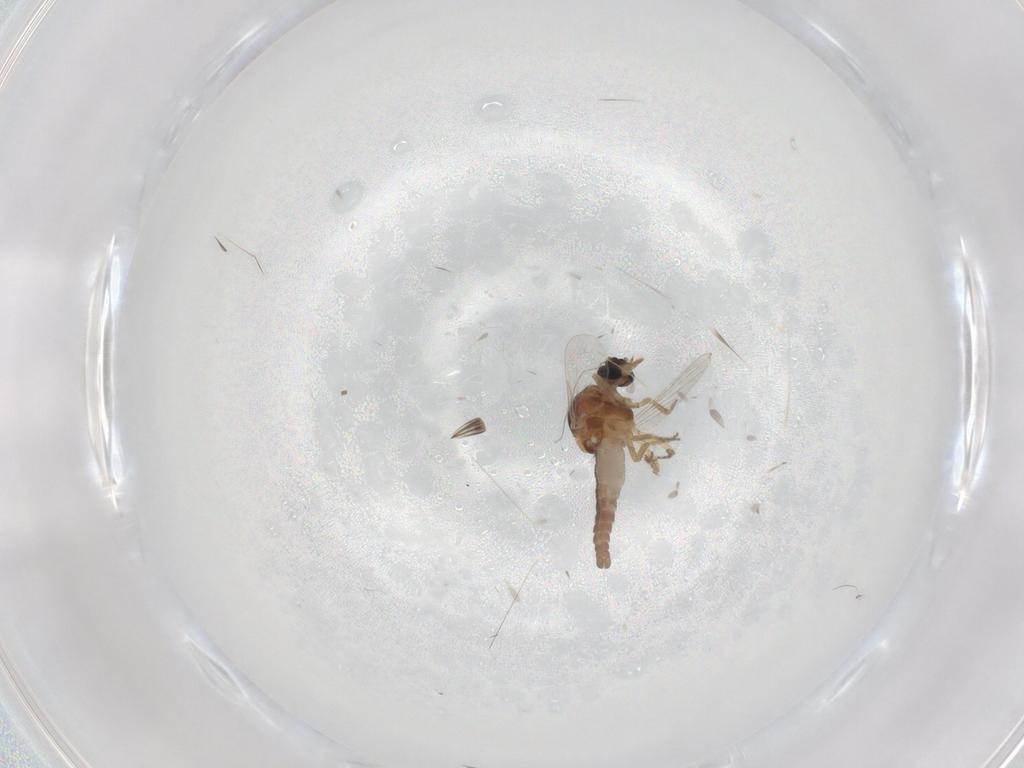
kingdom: Animalia
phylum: Arthropoda
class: Insecta
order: Diptera
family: Ceratopogonidae
